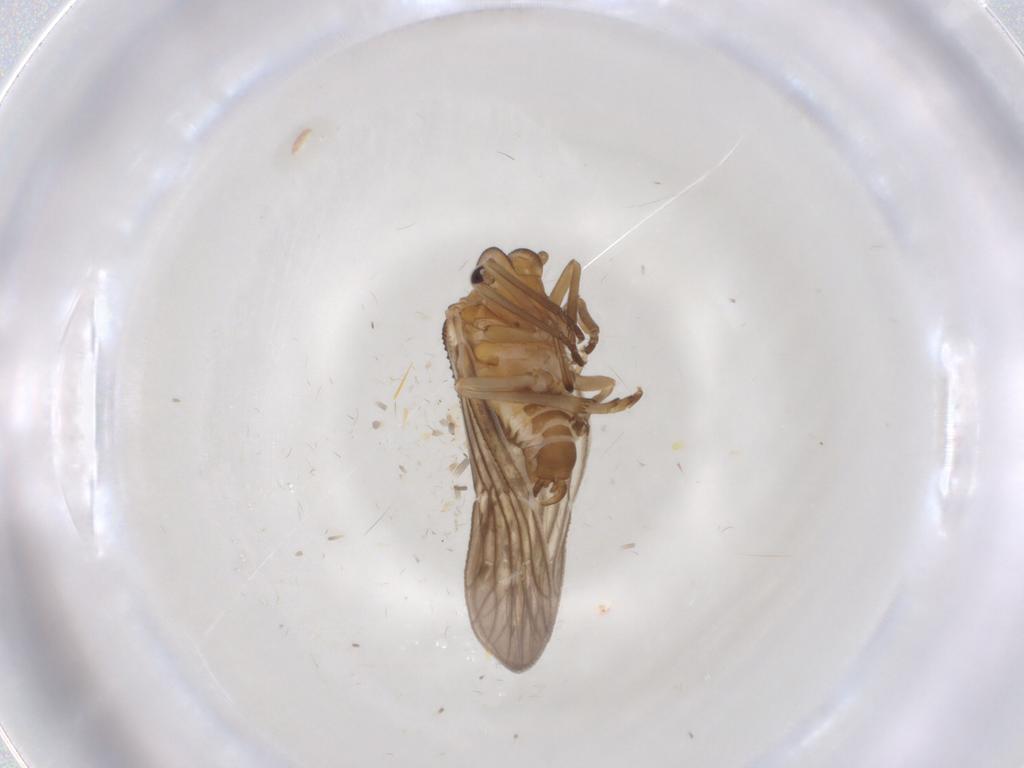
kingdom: Animalia
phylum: Arthropoda
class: Insecta
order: Hemiptera
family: Meenoplidae
